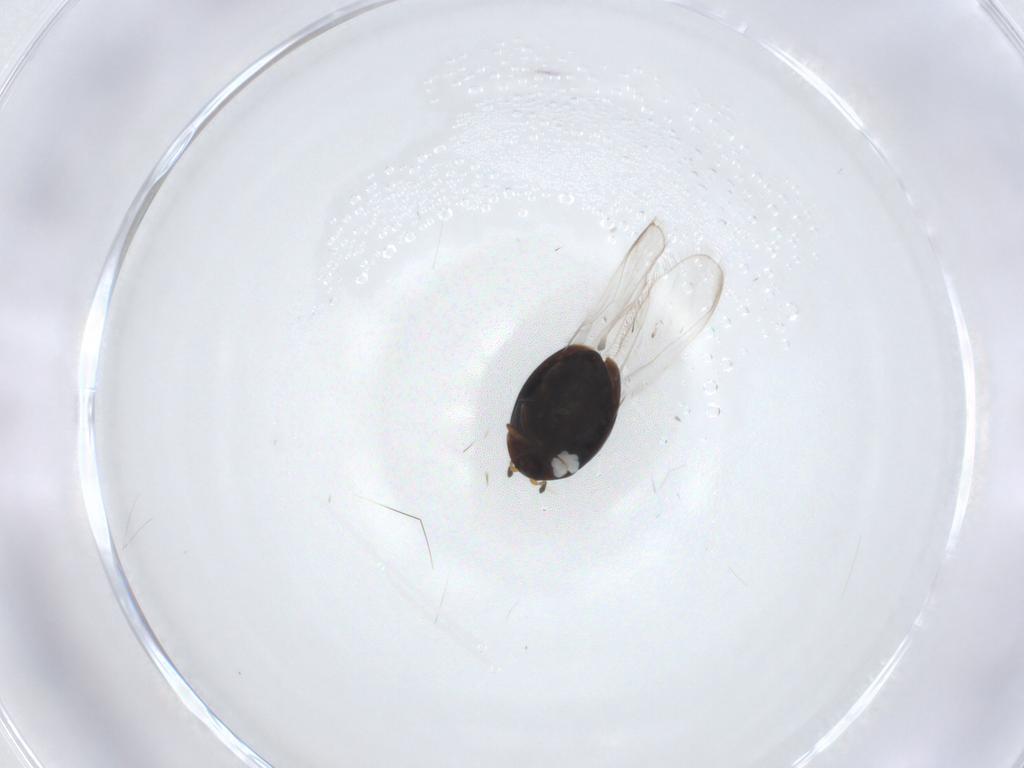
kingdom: Animalia
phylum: Arthropoda
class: Insecta
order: Coleoptera
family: Corylophidae
